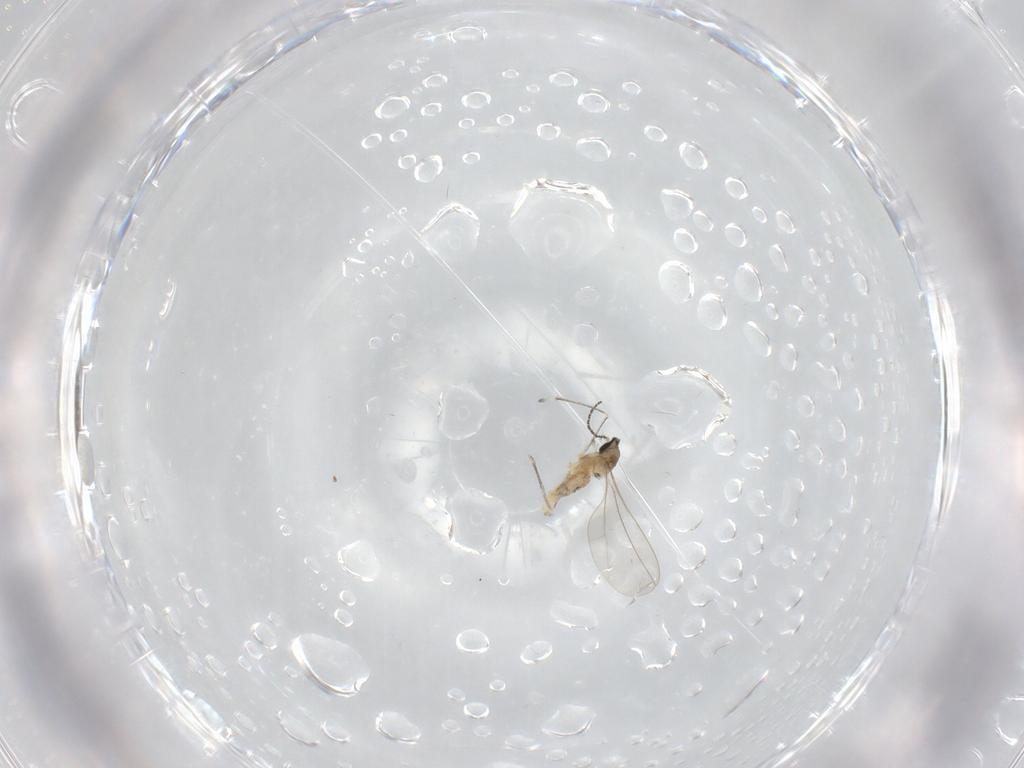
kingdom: Animalia
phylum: Arthropoda
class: Insecta
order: Diptera
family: Cecidomyiidae
